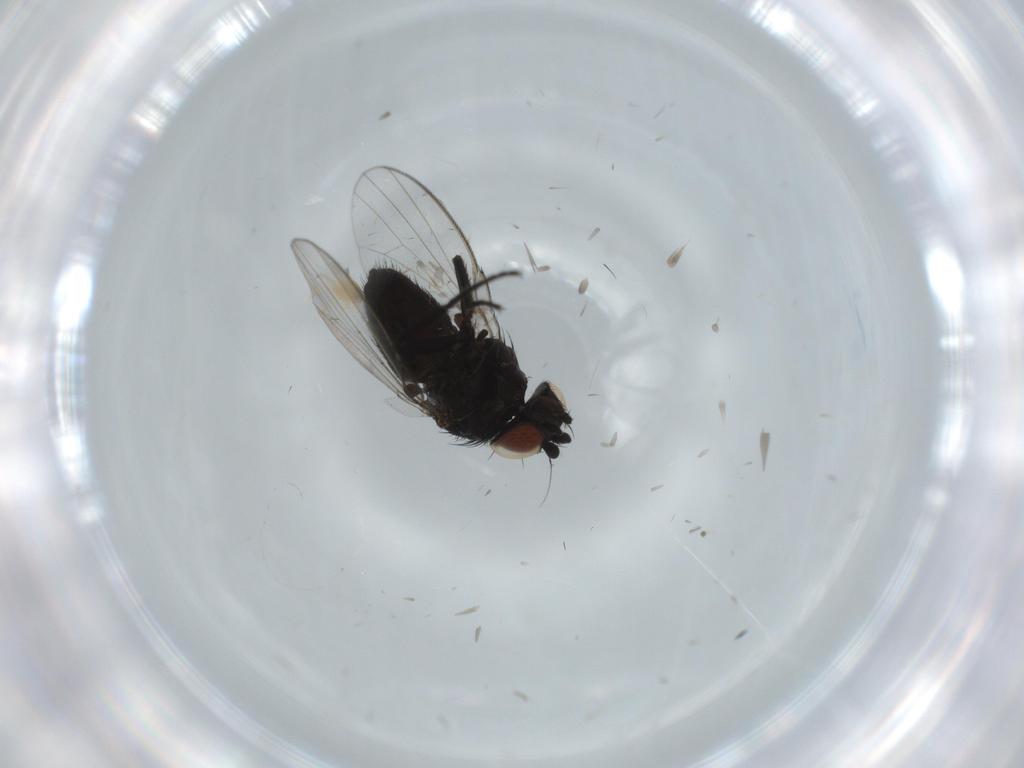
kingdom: Animalia
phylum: Arthropoda
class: Insecta
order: Diptera
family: Milichiidae
